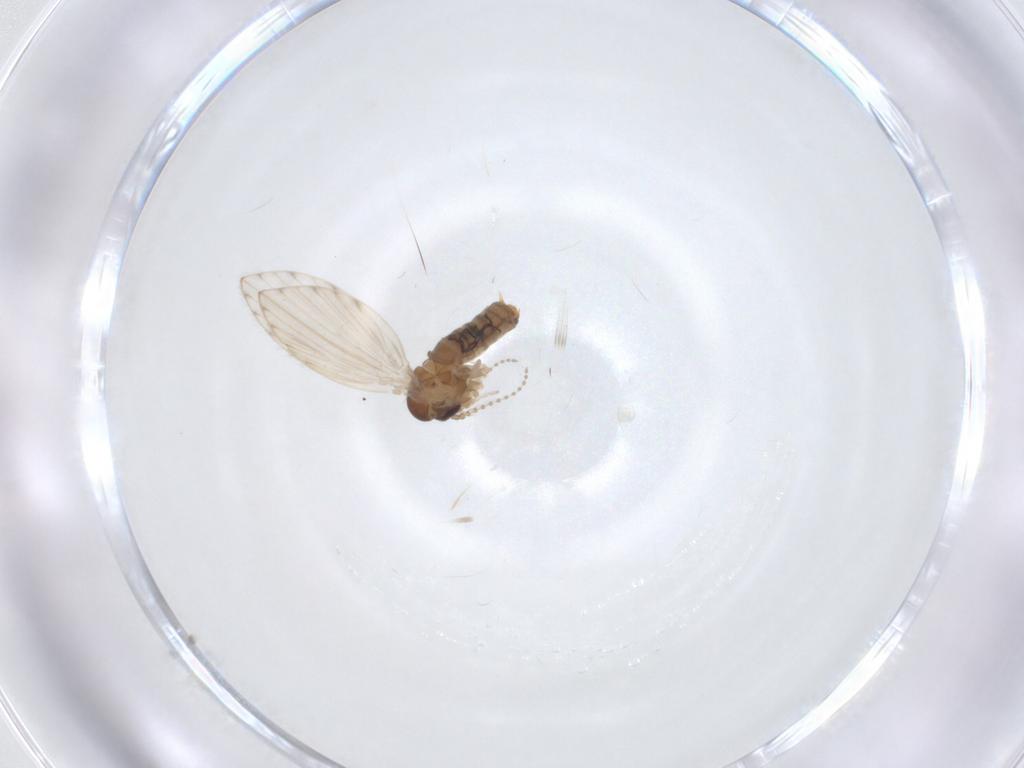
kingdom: Animalia
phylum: Arthropoda
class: Insecta
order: Diptera
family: Psychodidae
